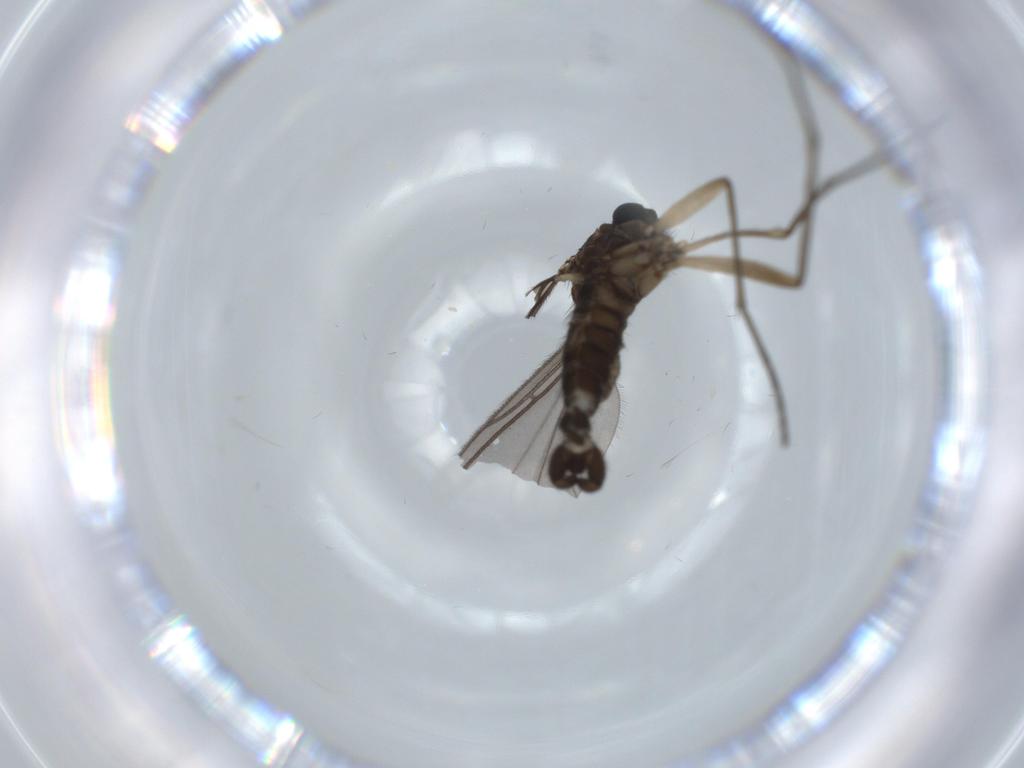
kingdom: Animalia
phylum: Arthropoda
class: Insecta
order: Diptera
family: Sciaridae
